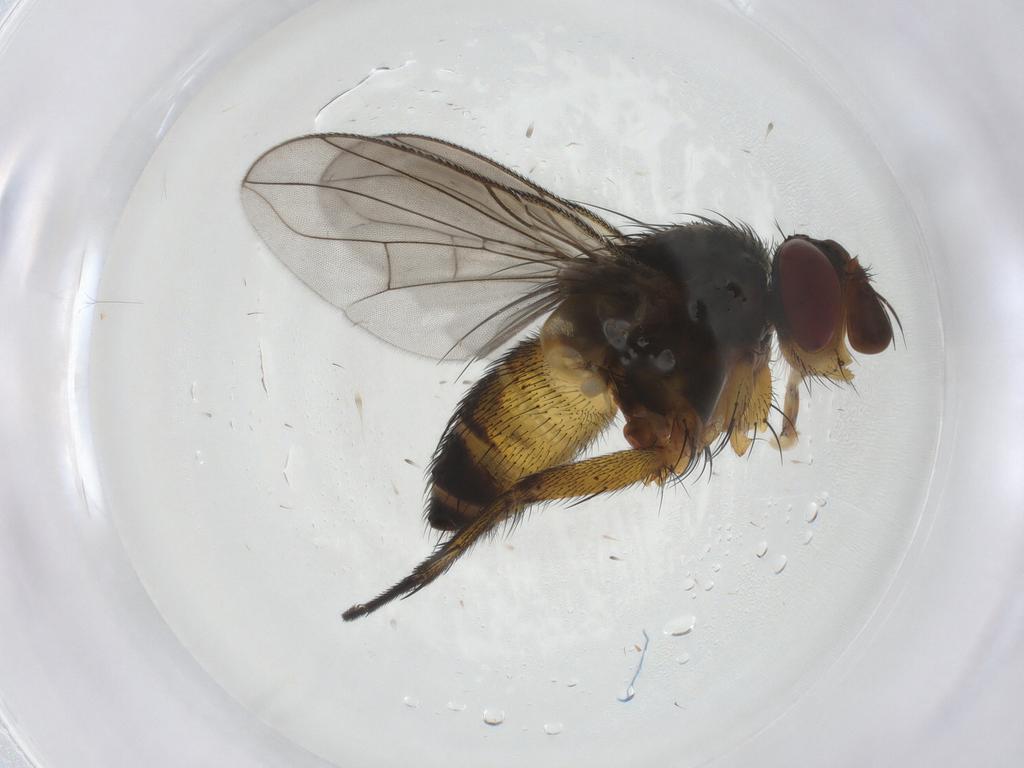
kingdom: Animalia
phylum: Arthropoda
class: Insecta
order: Diptera
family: Tachinidae
